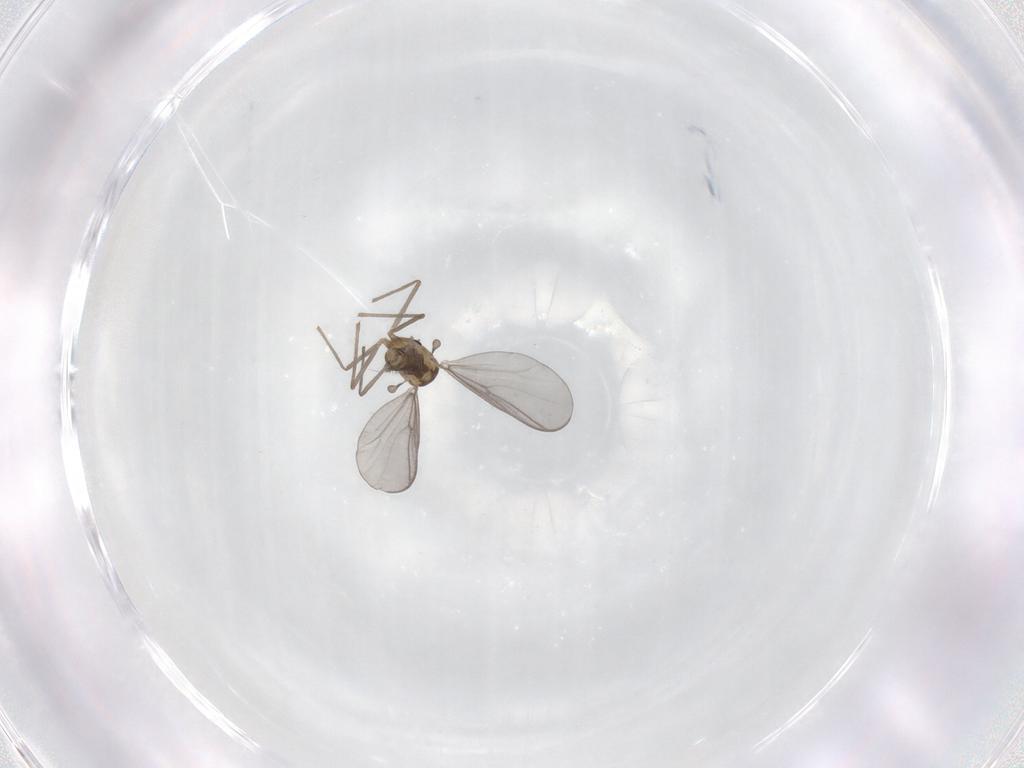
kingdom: Animalia
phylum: Arthropoda
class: Insecta
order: Diptera
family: Chironomidae
